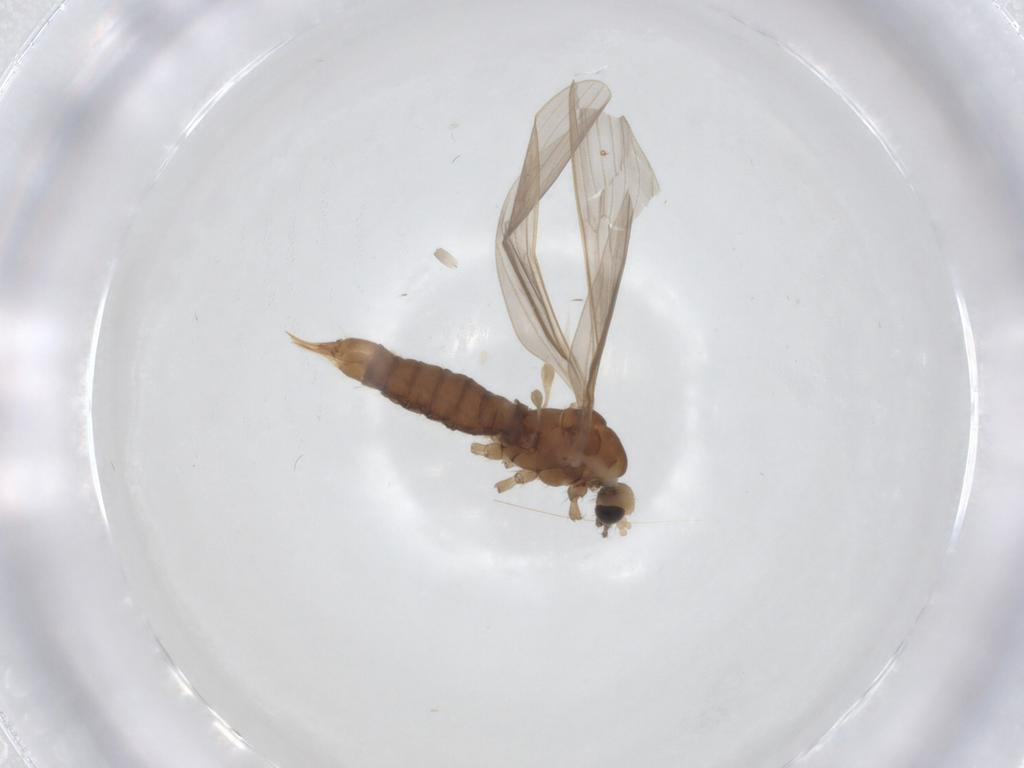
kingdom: Animalia
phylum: Arthropoda
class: Insecta
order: Diptera
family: Limoniidae
